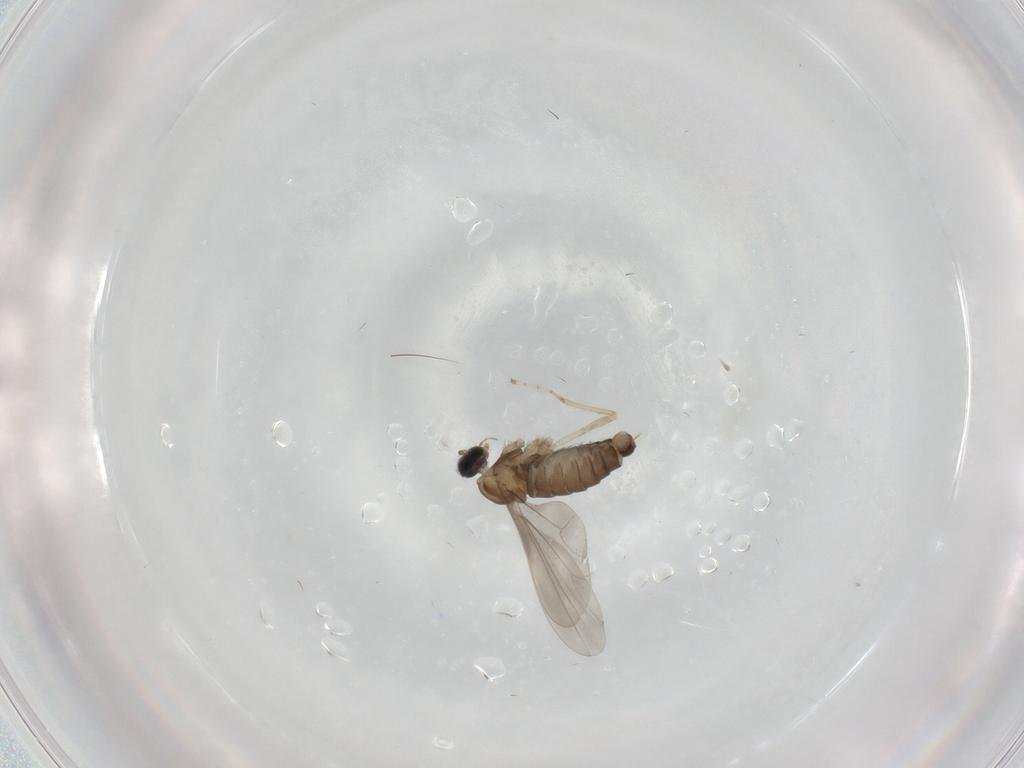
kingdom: Animalia
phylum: Arthropoda
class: Insecta
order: Diptera
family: Cecidomyiidae
